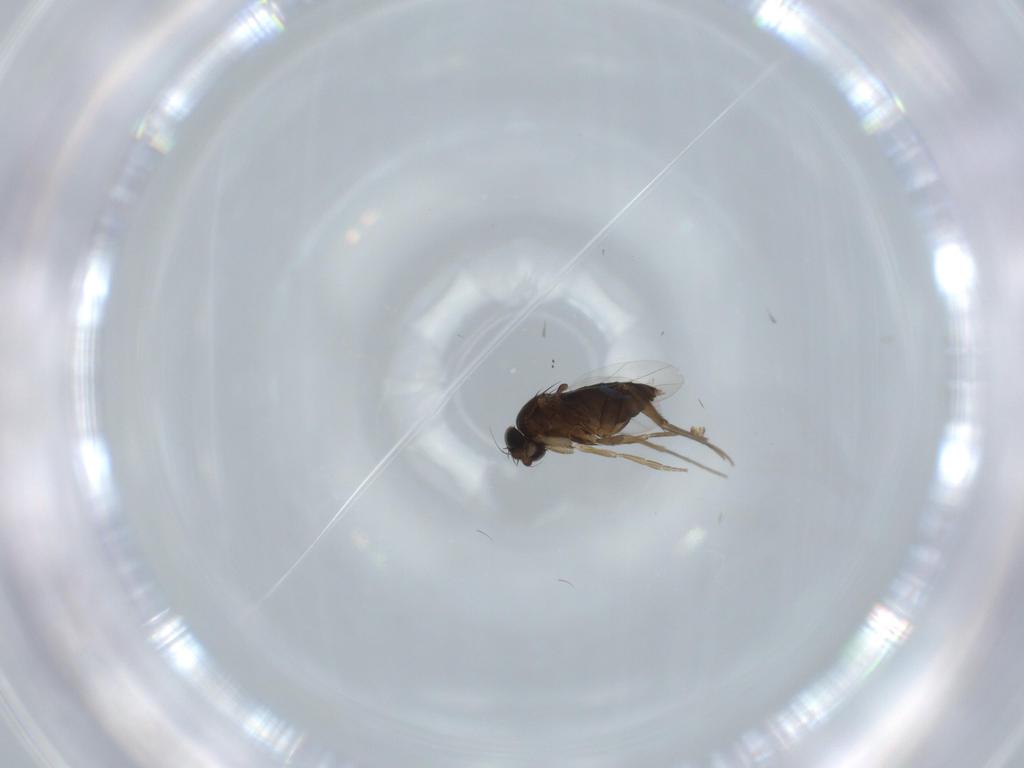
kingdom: Animalia
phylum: Arthropoda
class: Insecta
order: Diptera
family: Phoridae
